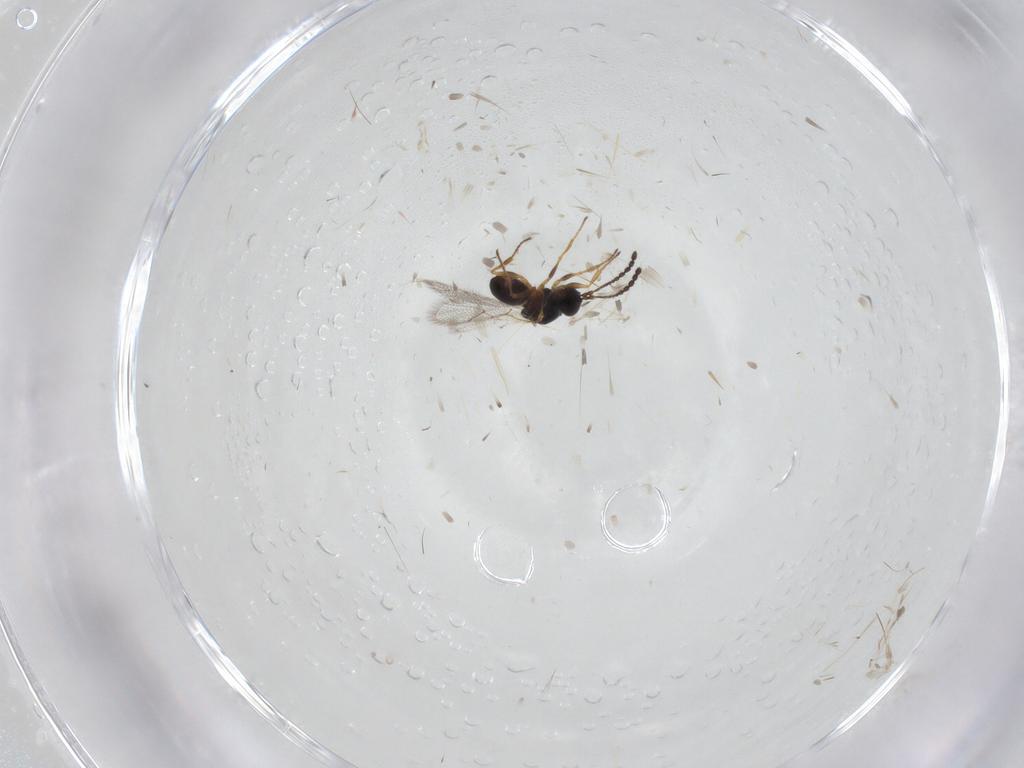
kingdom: Animalia
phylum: Arthropoda
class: Insecta
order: Hymenoptera
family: Figitidae
